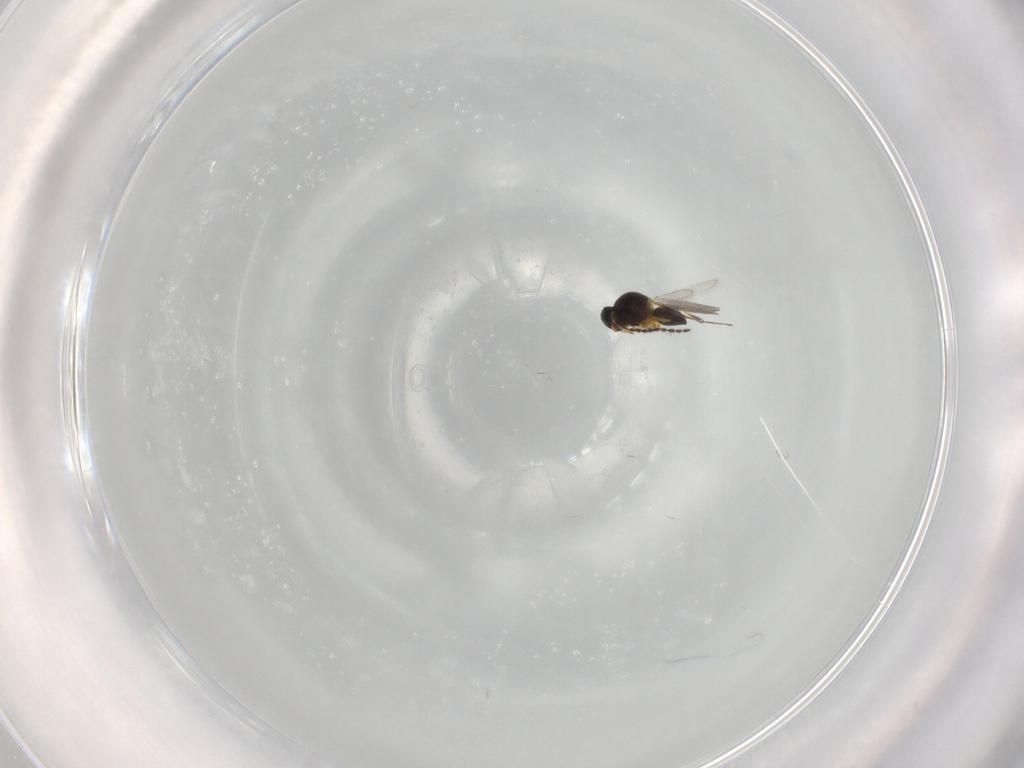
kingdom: Animalia
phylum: Arthropoda
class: Insecta
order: Hymenoptera
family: Platygastridae
